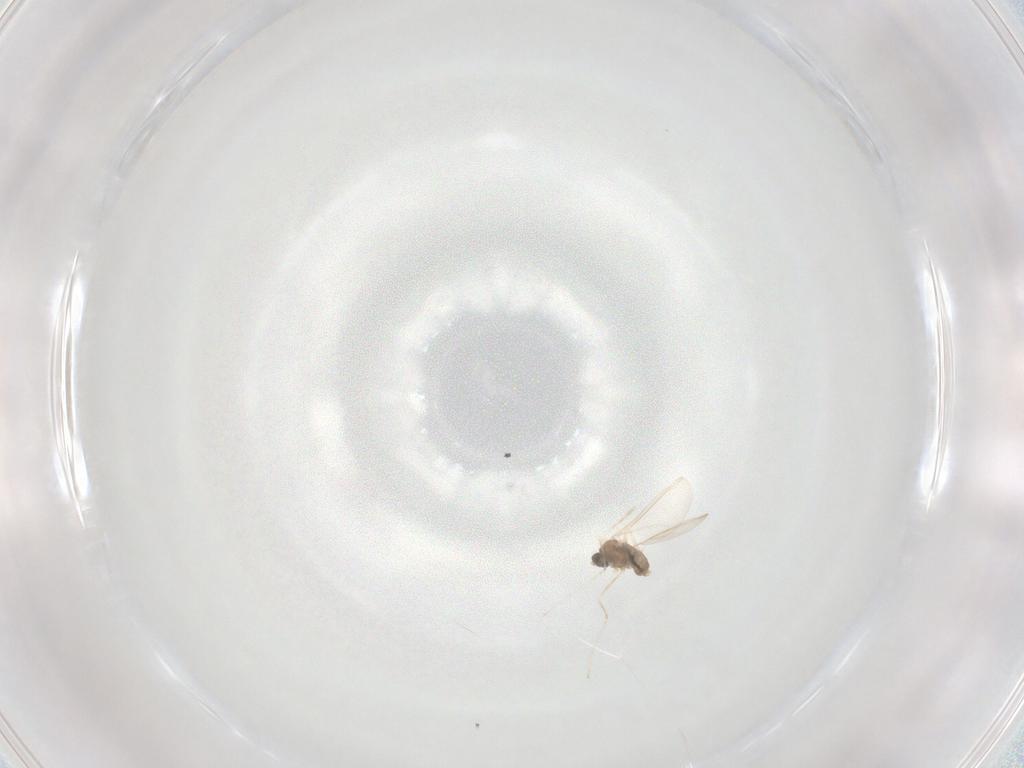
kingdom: Animalia
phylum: Arthropoda
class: Insecta
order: Diptera
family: Cecidomyiidae
